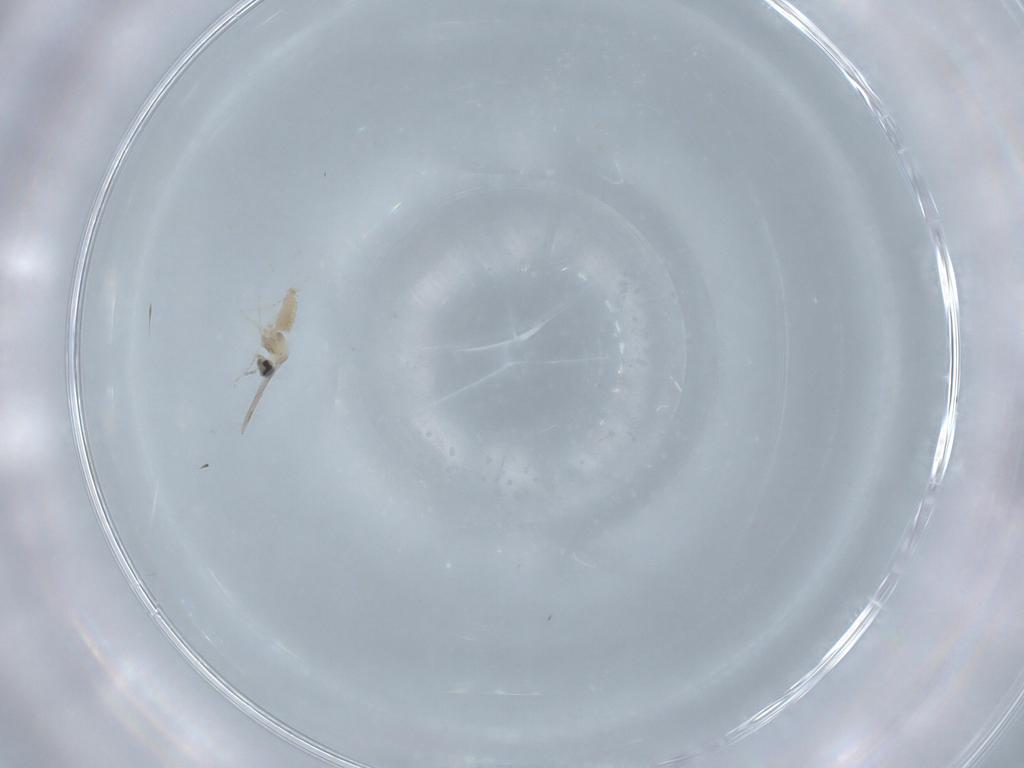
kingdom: Animalia
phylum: Arthropoda
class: Insecta
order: Diptera
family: Cecidomyiidae
